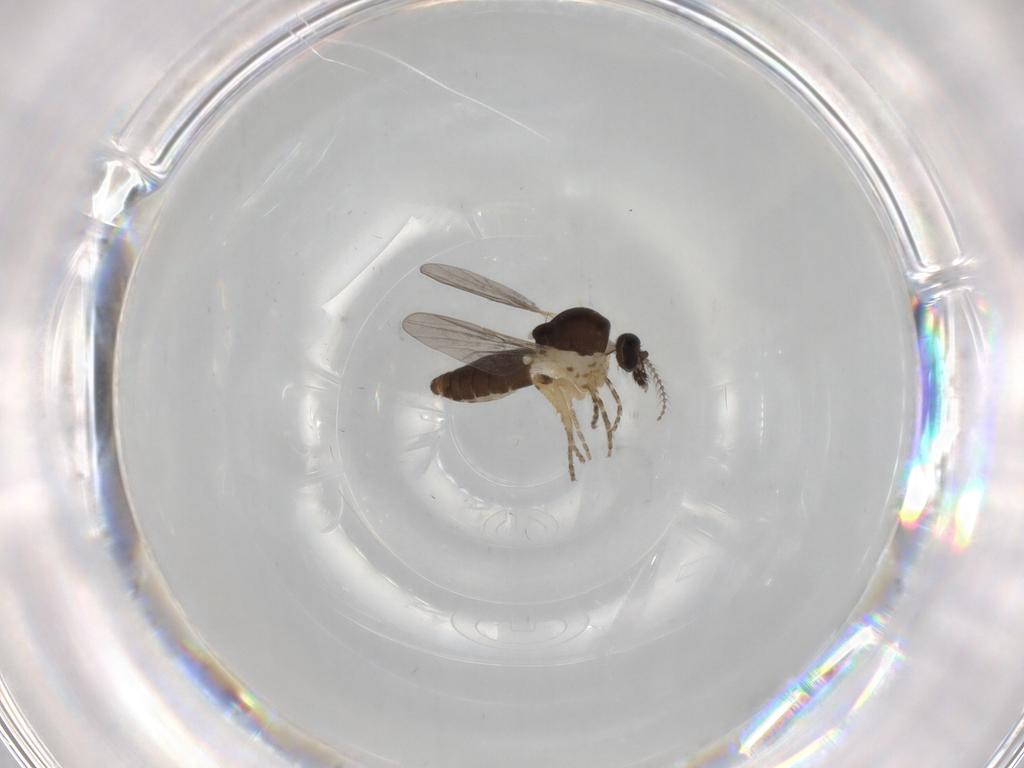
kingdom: Animalia
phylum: Arthropoda
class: Insecta
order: Diptera
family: Ceratopogonidae
